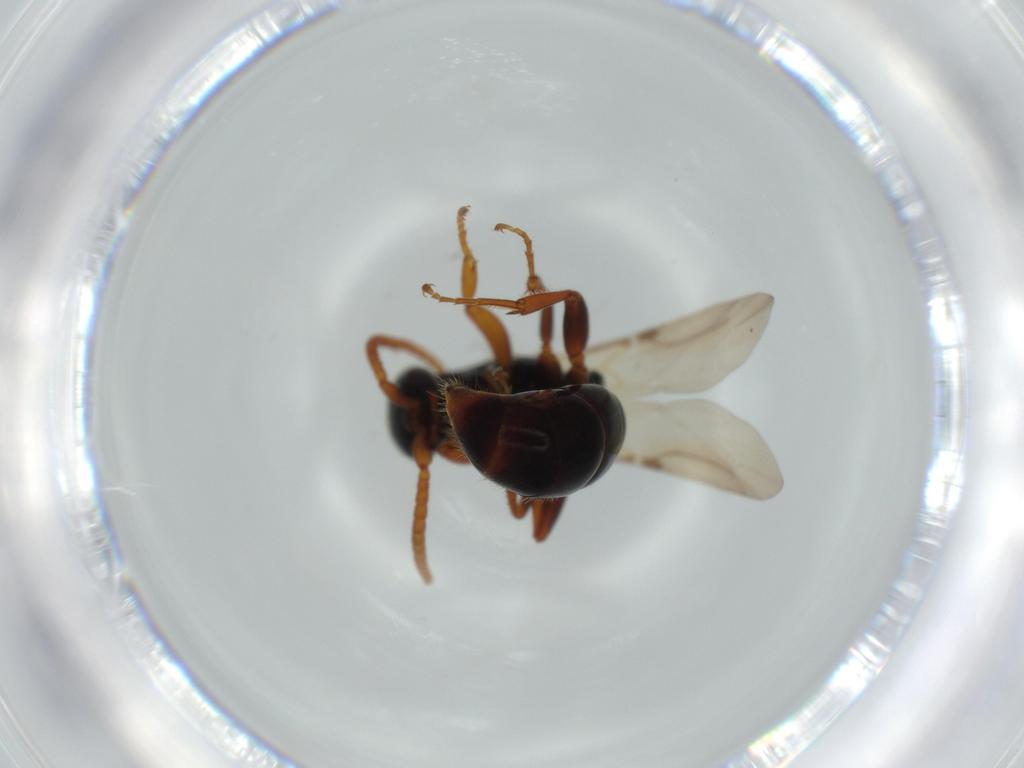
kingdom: Animalia
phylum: Arthropoda
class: Insecta
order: Hymenoptera
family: Bethylidae
